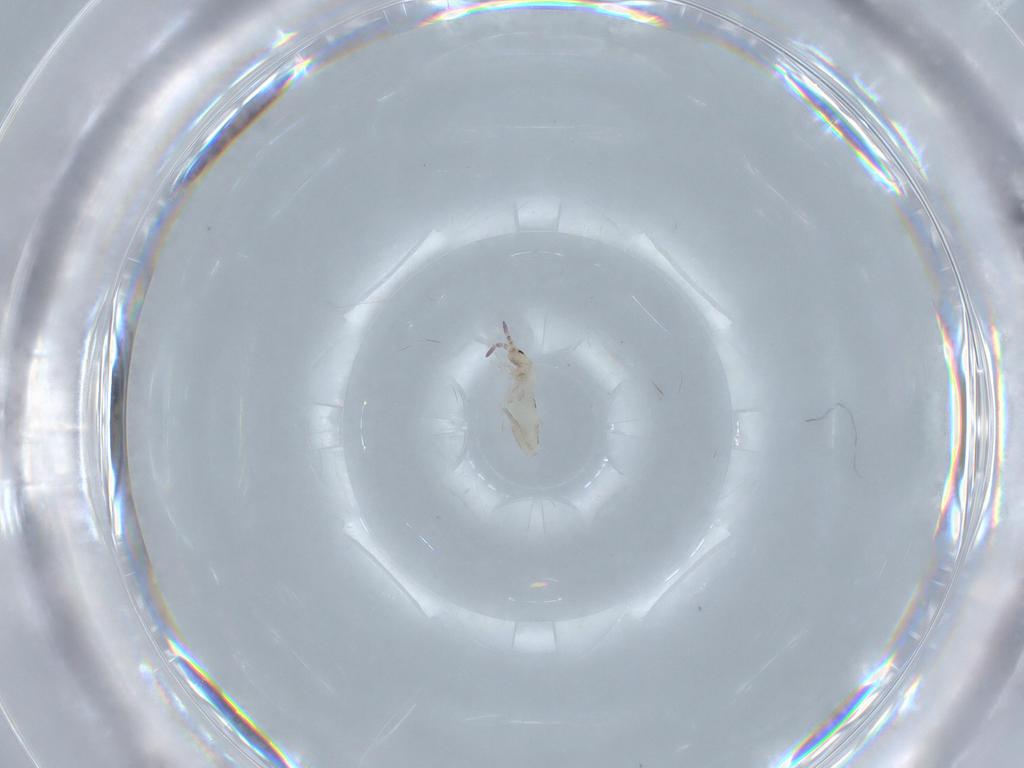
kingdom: Animalia
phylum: Arthropoda
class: Collembola
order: Entomobryomorpha
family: Entomobryidae
